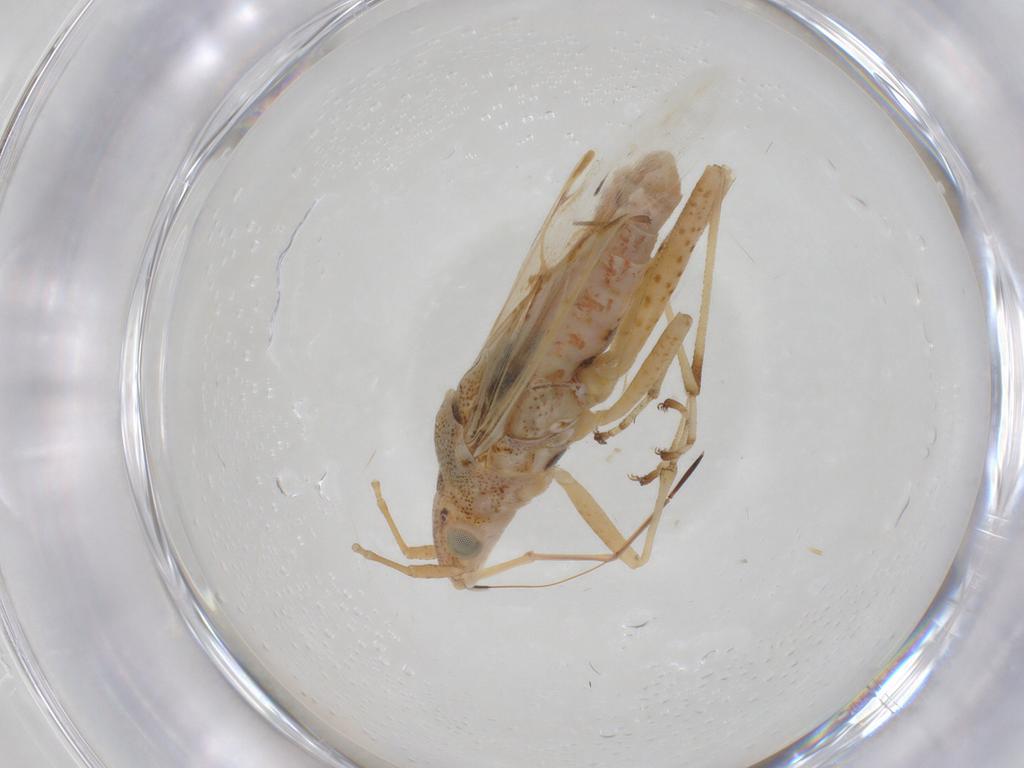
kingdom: Animalia
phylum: Arthropoda
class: Insecta
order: Hemiptera
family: Lygaeidae
